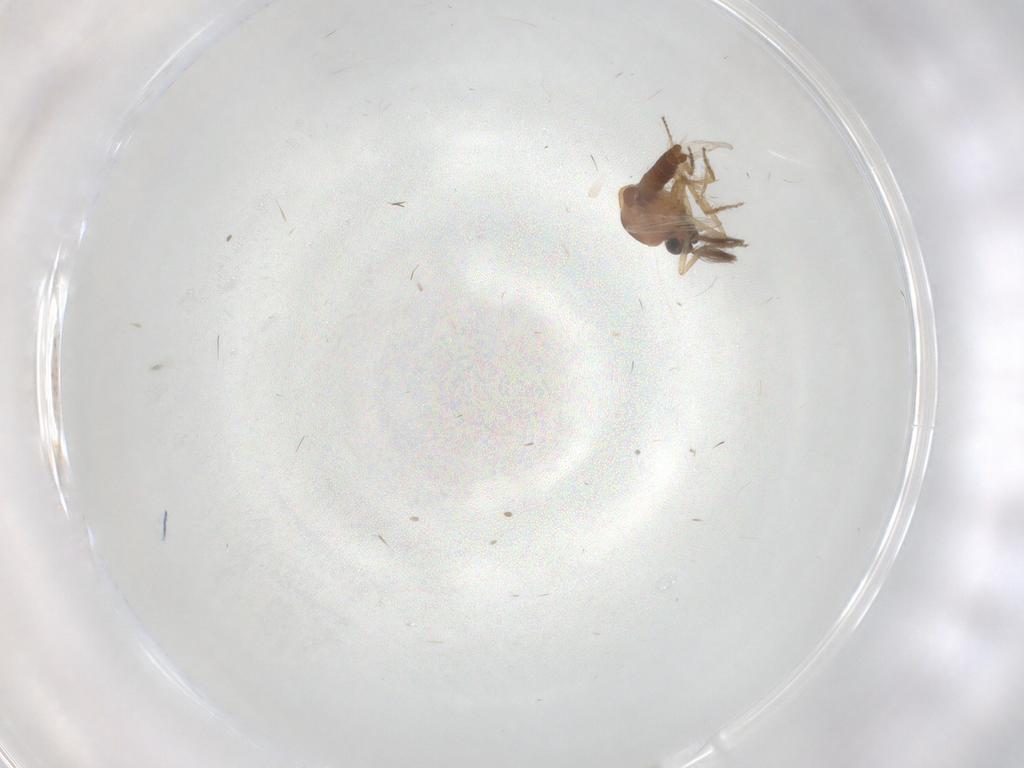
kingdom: Animalia
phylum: Arthropoda
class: Insecta
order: Diptera
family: Ceratopogonidae
